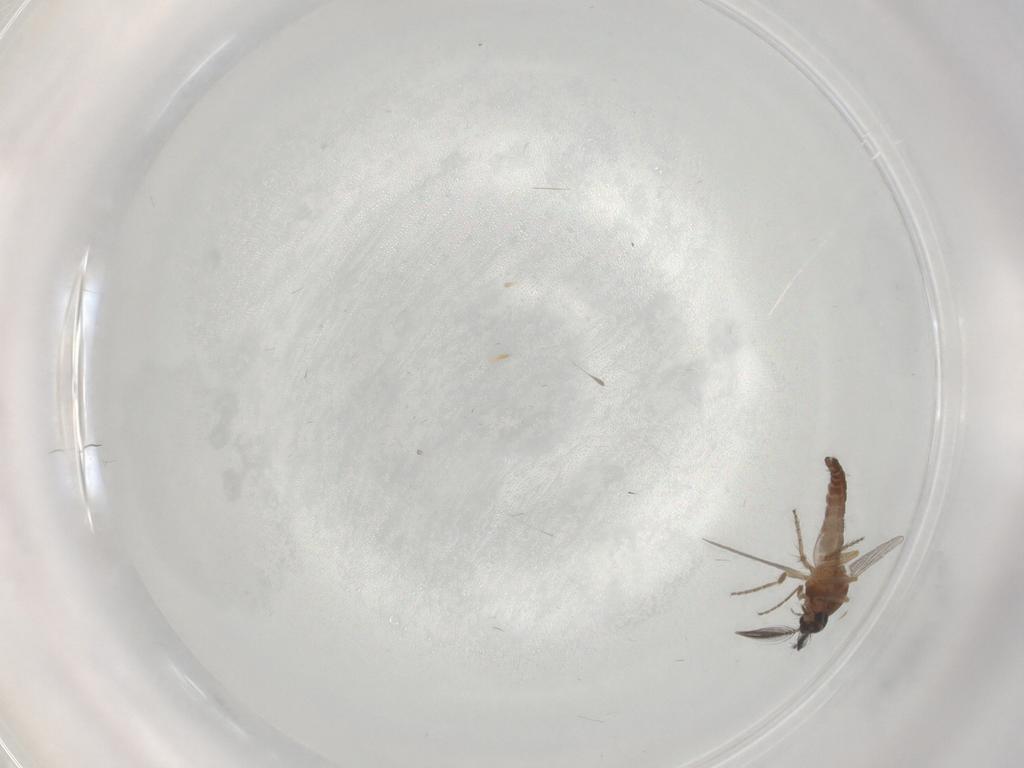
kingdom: Animalia
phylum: Arthropoda
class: Insecta
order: Diptera
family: Ceratopogonidae
